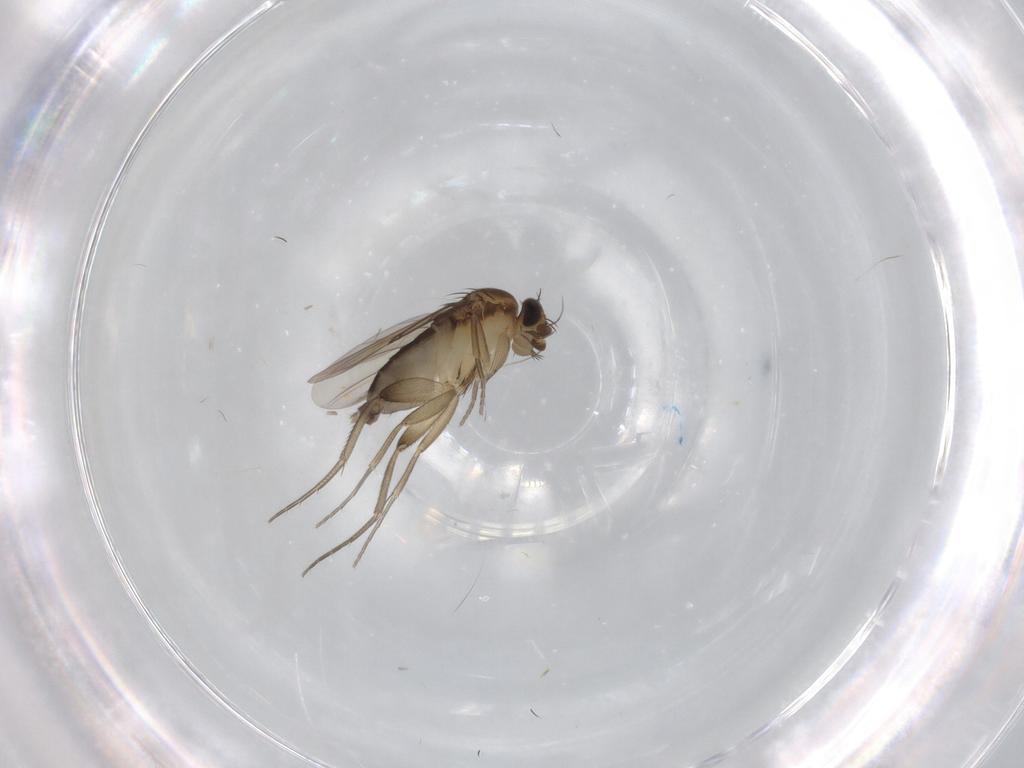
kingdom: Animalia
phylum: Arthropoda
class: Insecta
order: Diptera
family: Phoridae
